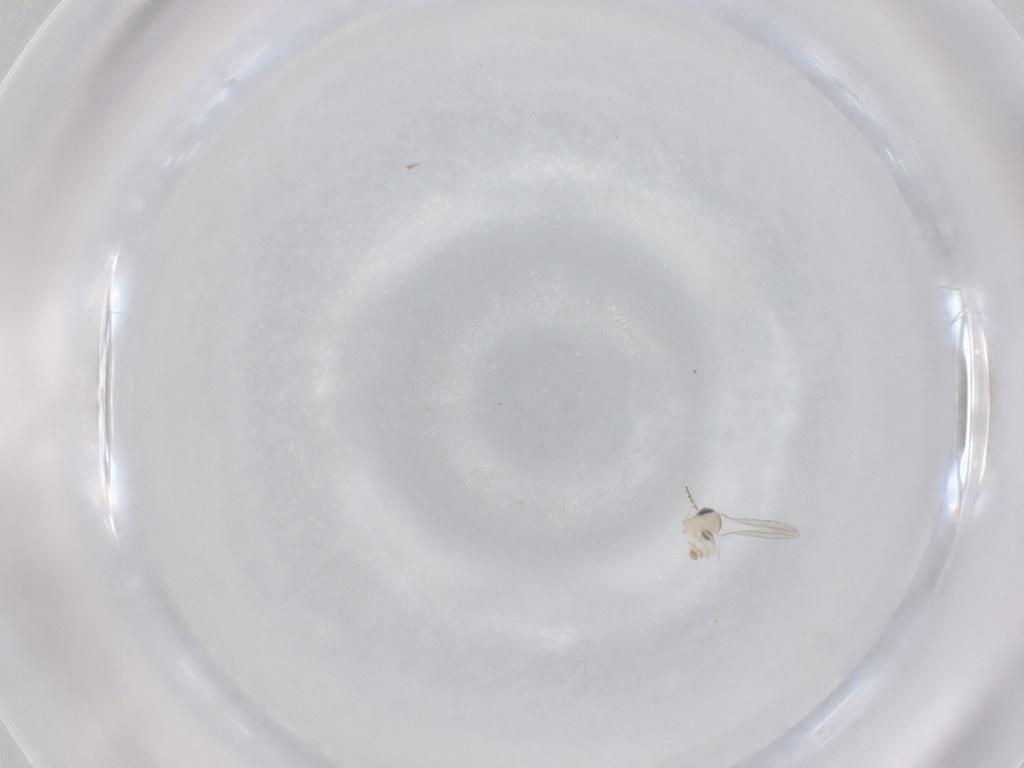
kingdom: Animalia
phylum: Arthropoda
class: Insecta
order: Diptera
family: Cecidomyiidae
